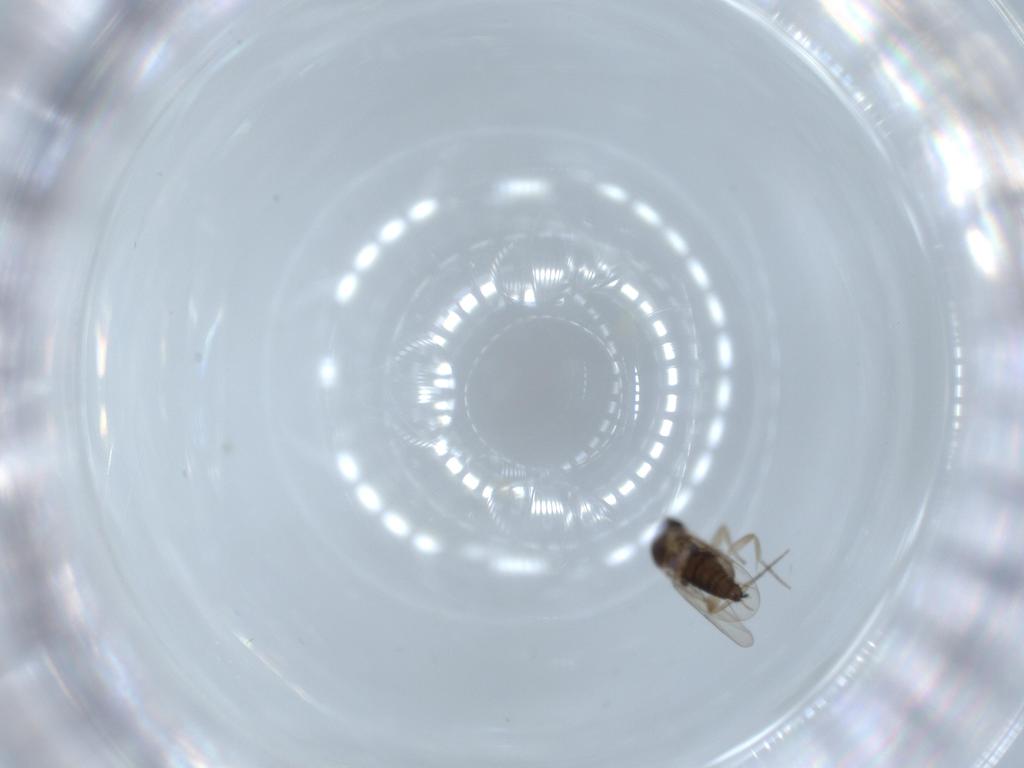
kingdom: Animalia
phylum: Arthropoda
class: Insecta
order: Diptera
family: Phoridae
